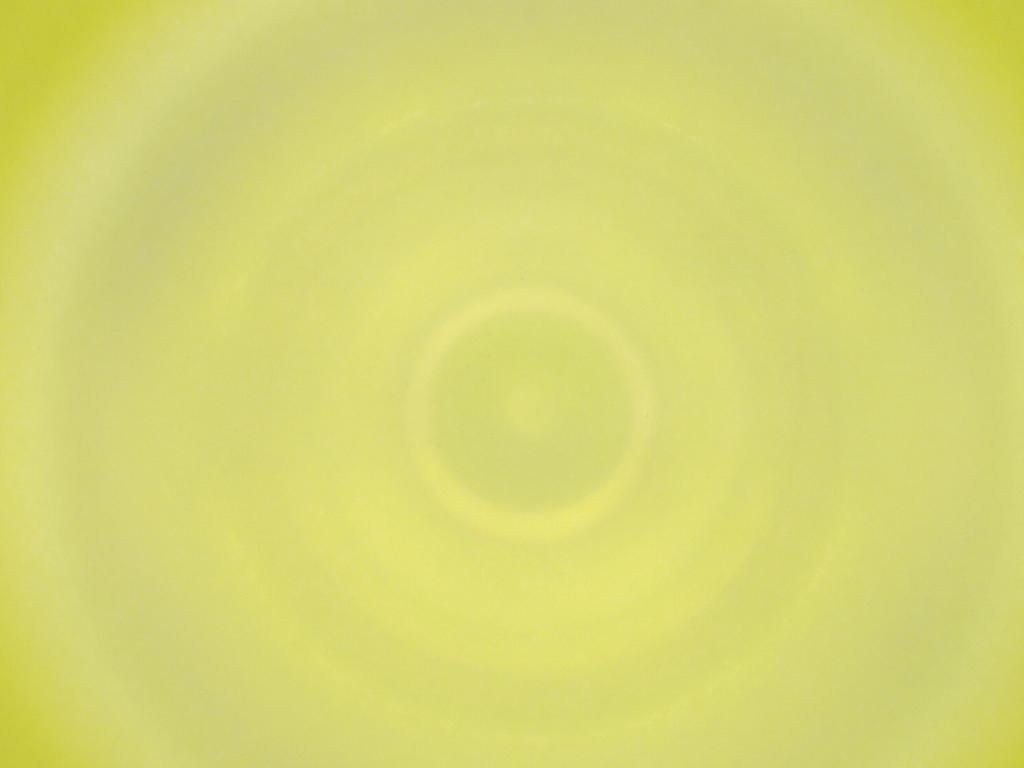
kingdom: Animalia
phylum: Arthropoda
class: Insecta
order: Diptera
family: Cecidomyiidae
